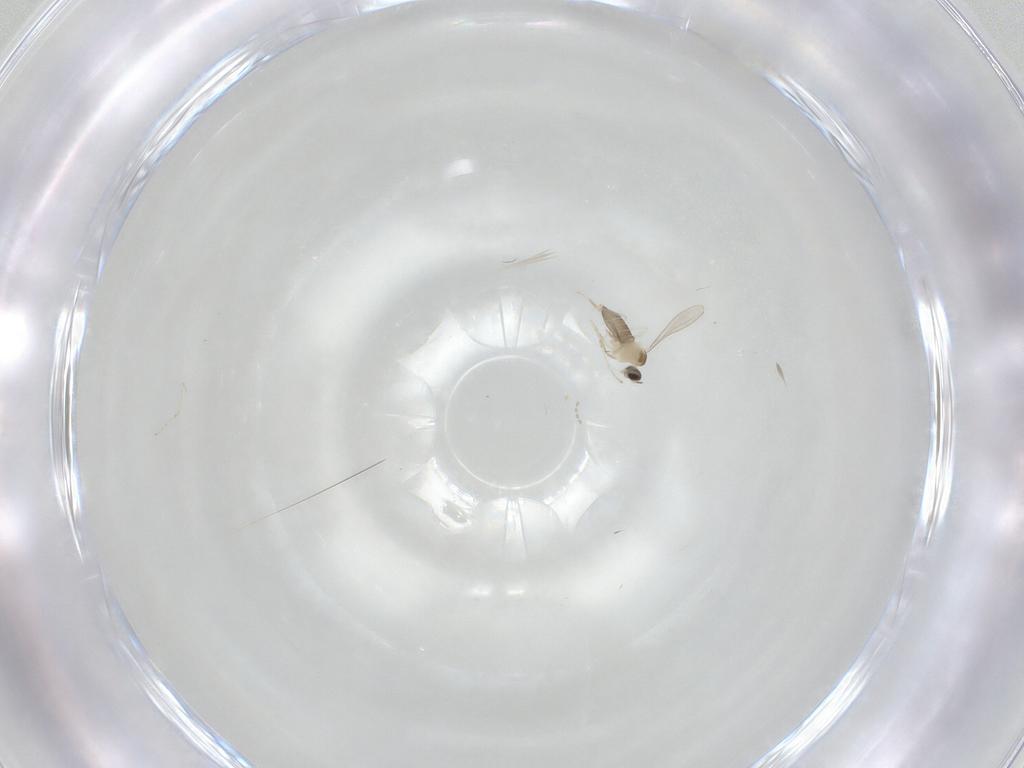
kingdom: Animalia
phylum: Arthropoda
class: Insecta
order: Diptera
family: Cecidomyiidae
